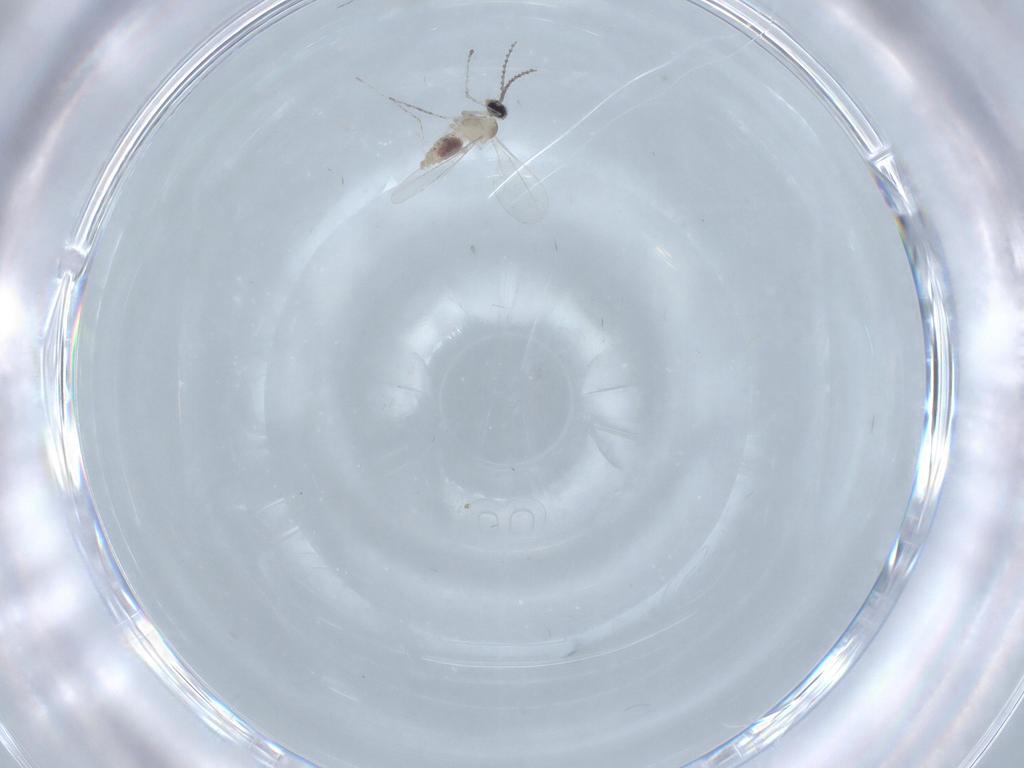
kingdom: Animalia
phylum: Arthropoda
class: Insecta
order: Diptera
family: Cecidomyiidae
